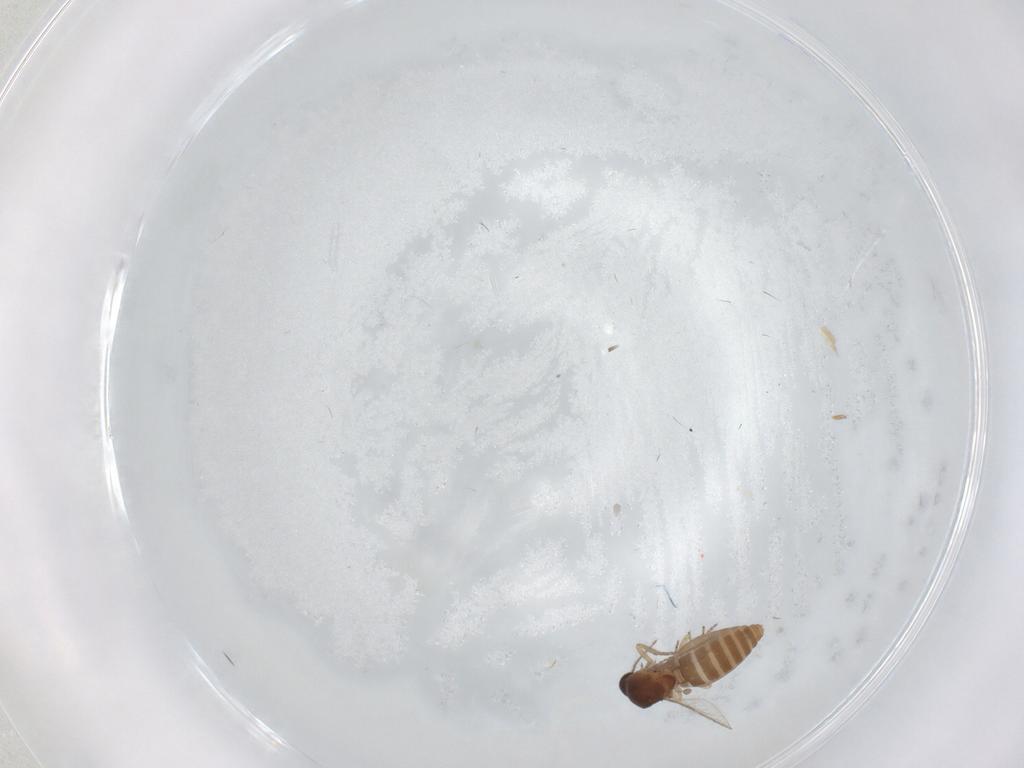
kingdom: Animalia
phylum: Arthropoda
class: Insecta
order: Diptera
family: Ceratopogonidae
